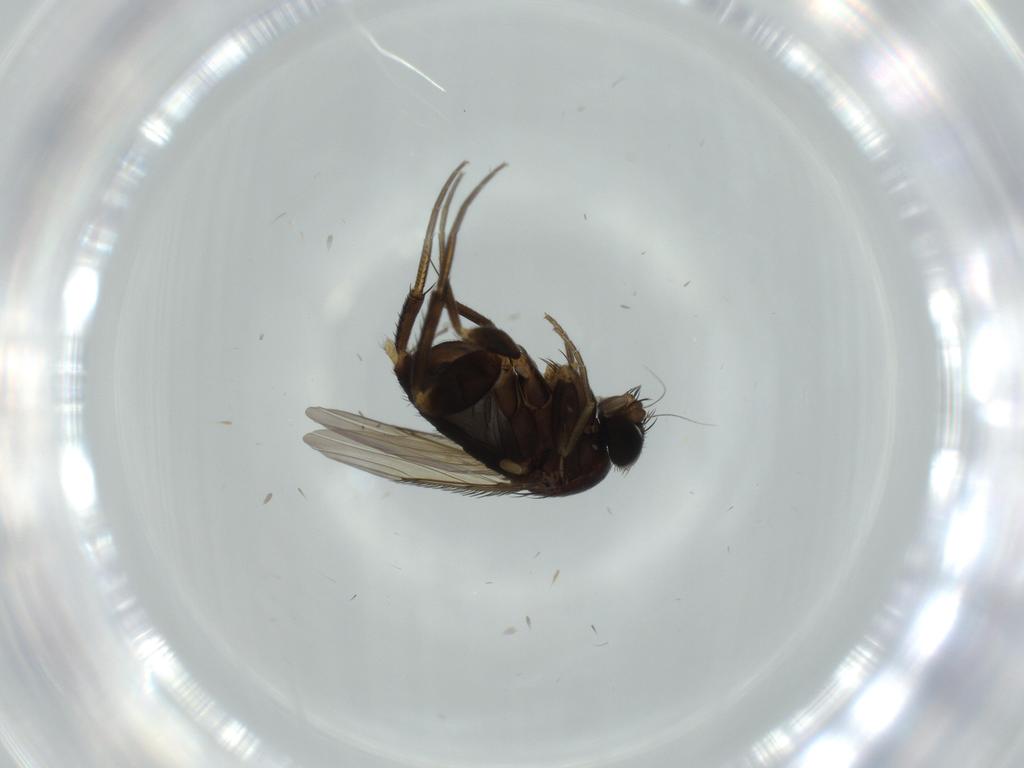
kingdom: Animalia
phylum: Arthropoda
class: Insecta
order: Diptera
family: Phoridae
